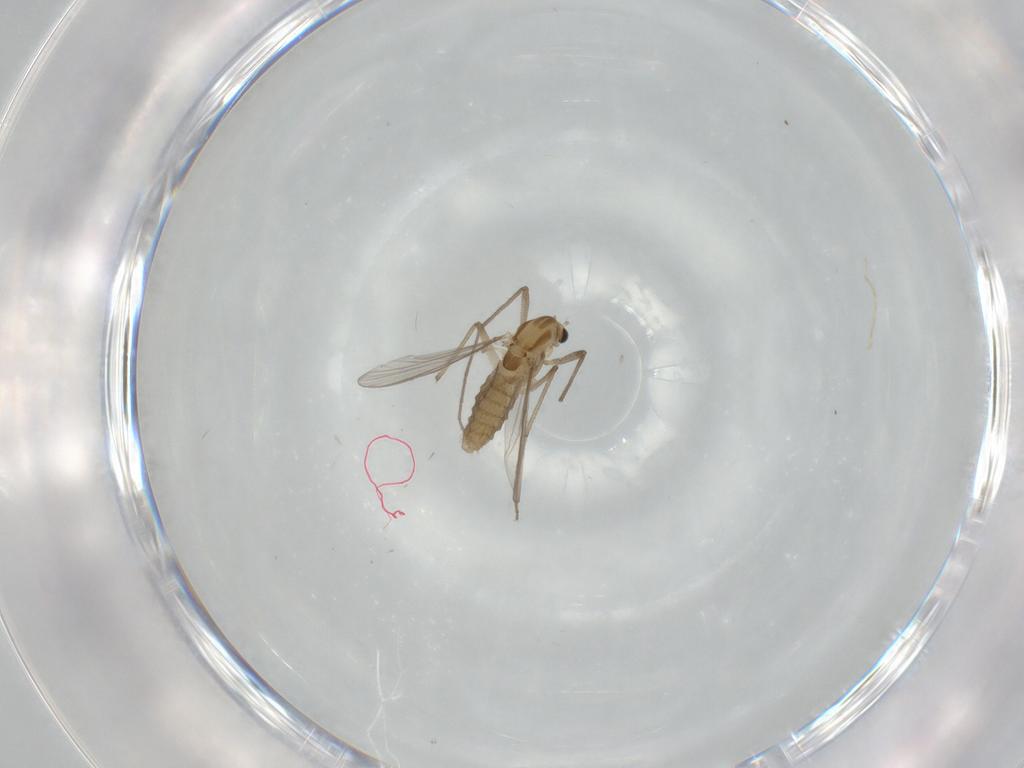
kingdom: Animalia
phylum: Arthropoda
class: Insecta
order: Diptera
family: Chironomidae
